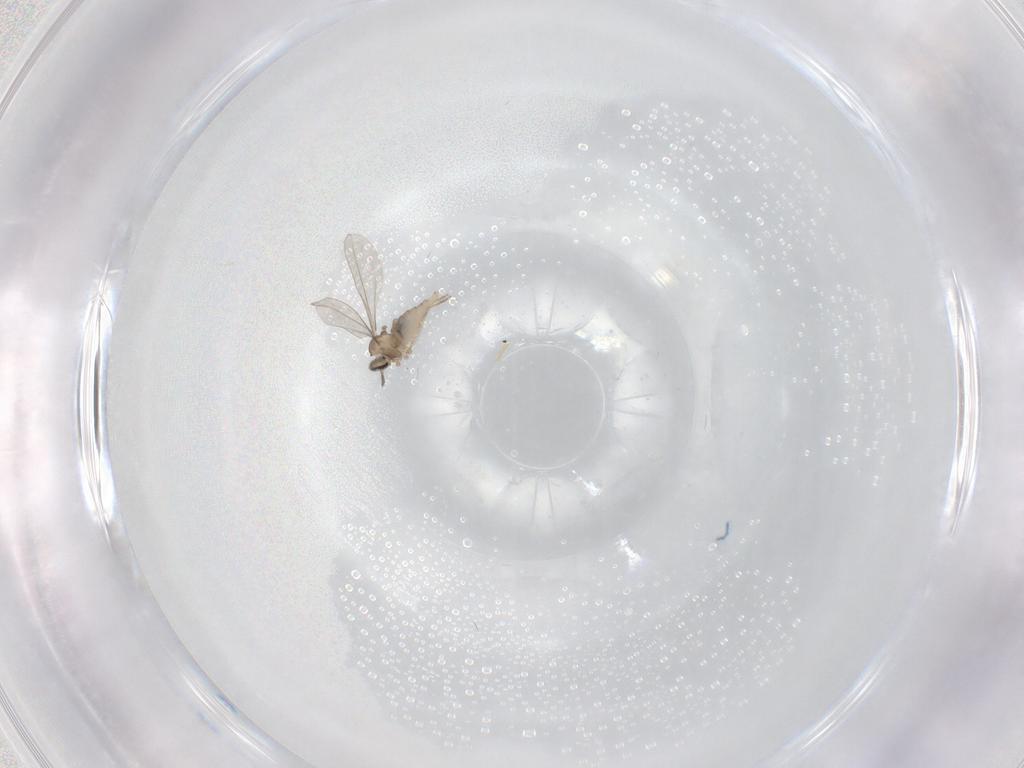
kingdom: Animalia
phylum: Arthropoda
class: Insecta
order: Diptera
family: Cecidomyiidae
